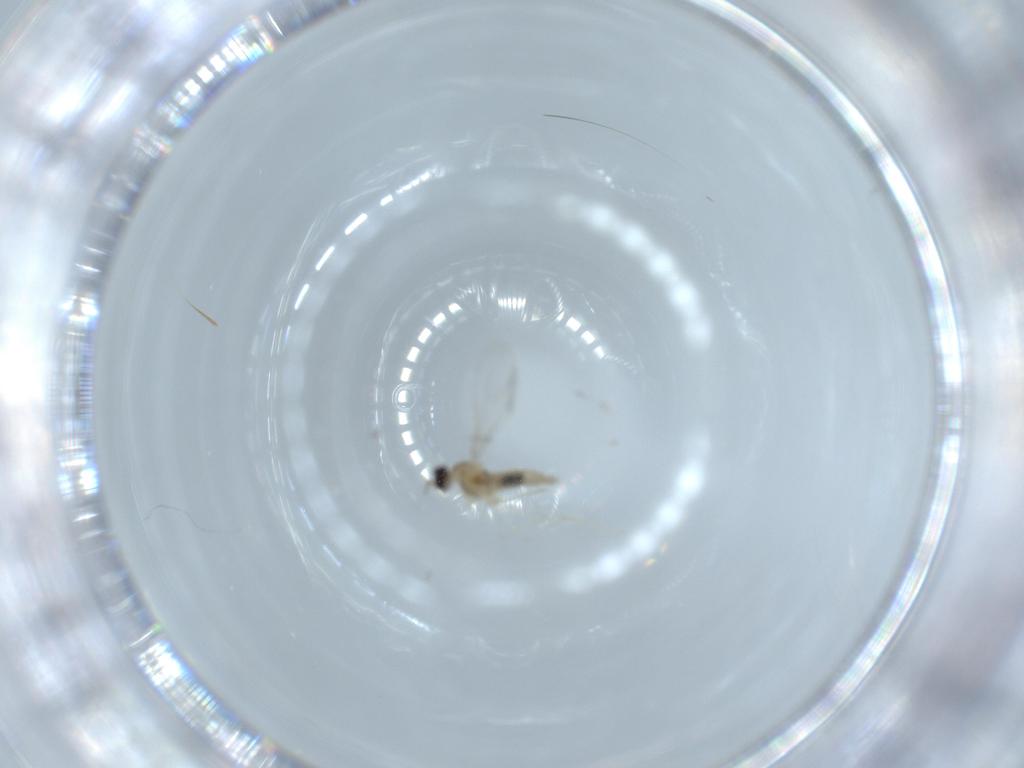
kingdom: Animalia
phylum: Arthropoda
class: Insecta
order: Diptera
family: Cecidomyiidae
